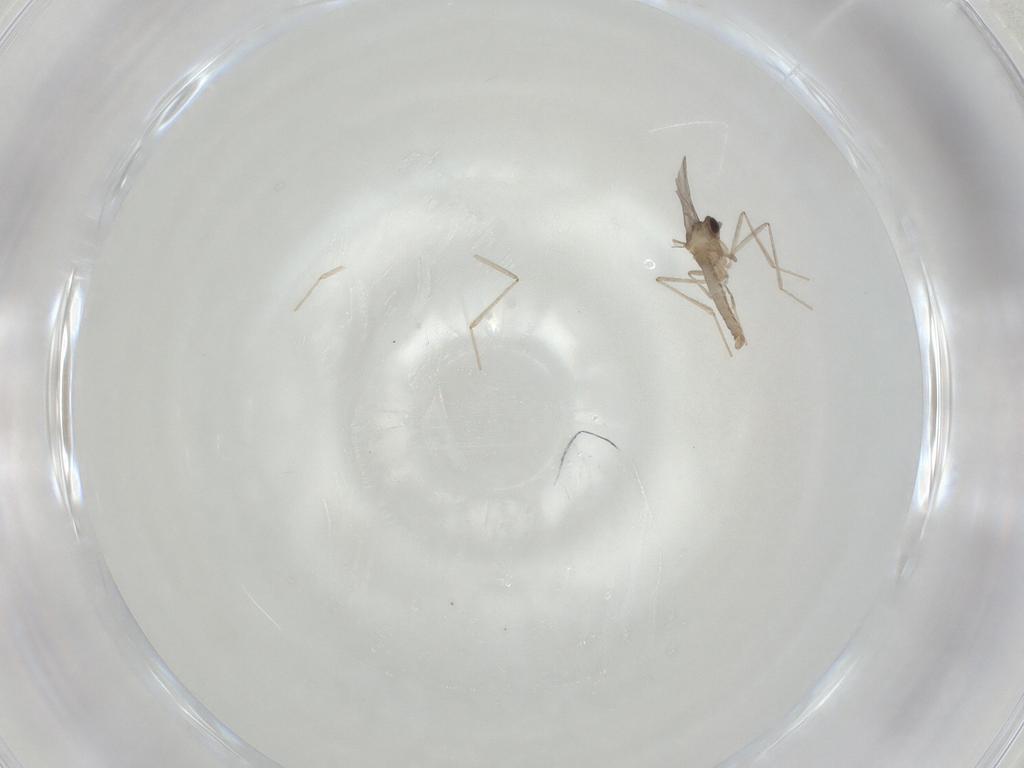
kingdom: Animalia
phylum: Arthropoda
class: Insecta
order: Diptera
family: Cecidomyiidae
